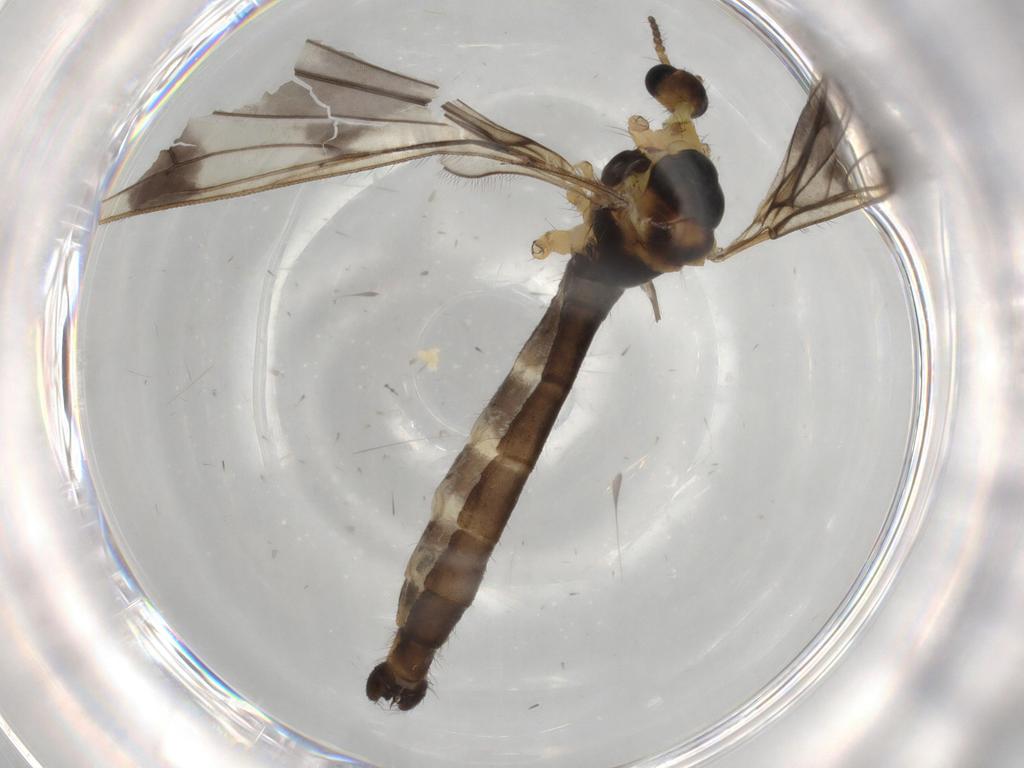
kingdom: Animalia
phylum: Arthropoda
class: Insecta
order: Diptera
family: Limoniidae
